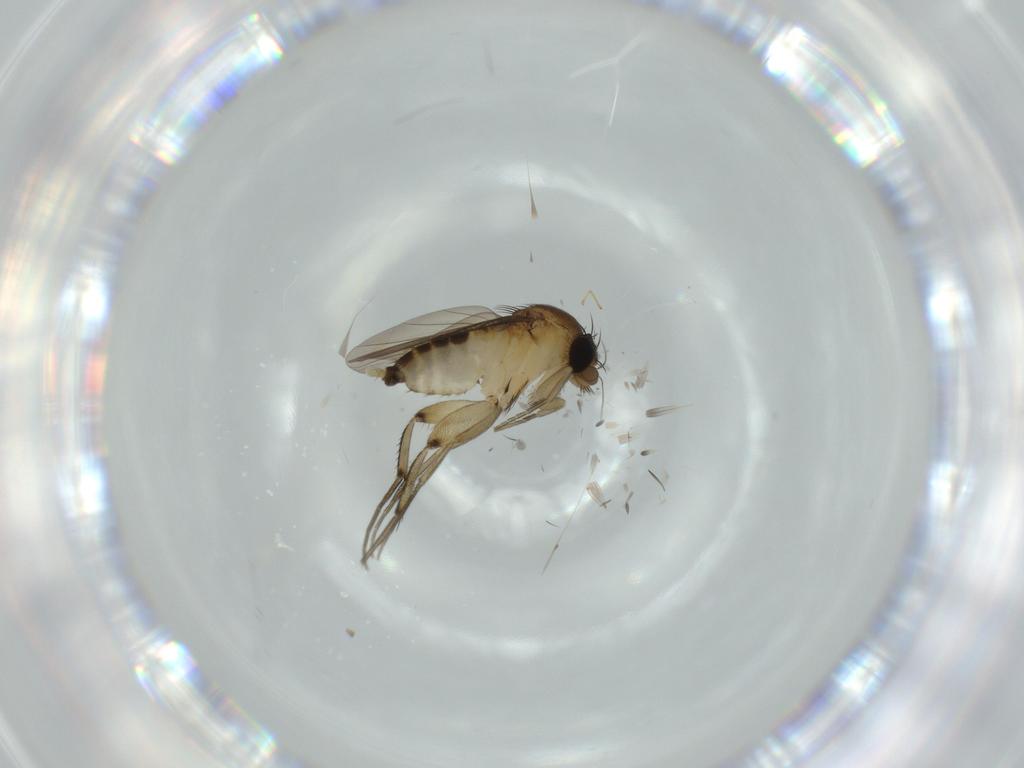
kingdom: Animalia
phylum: Arthropoda
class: Insecta
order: Diptera
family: Phoridae
